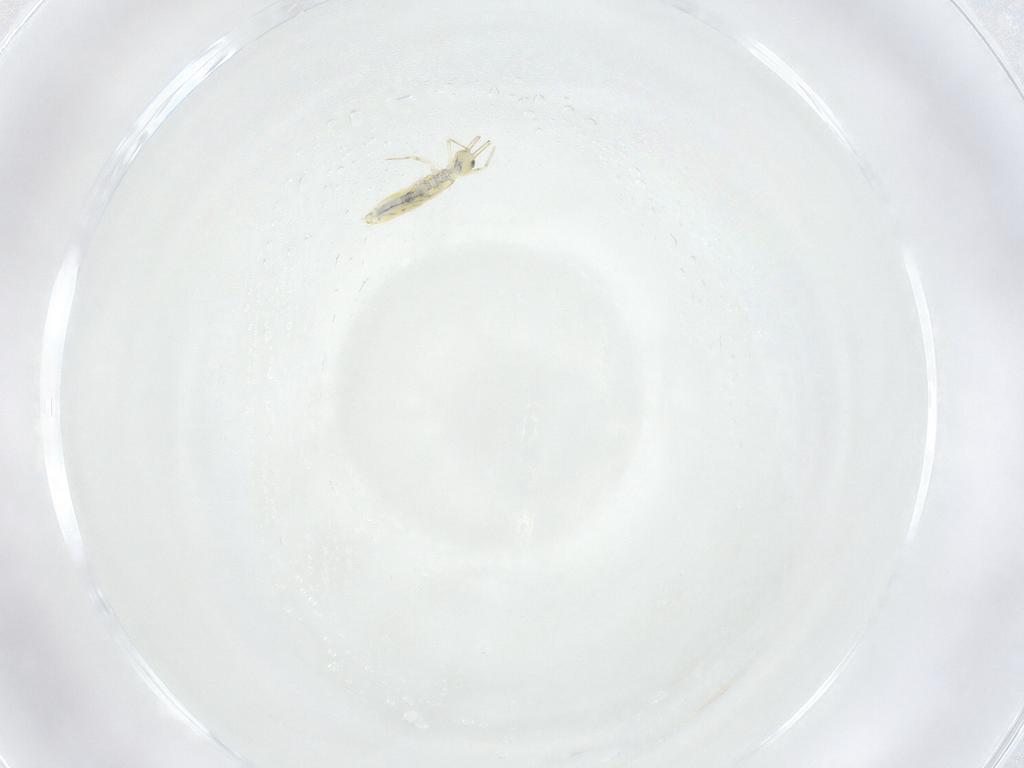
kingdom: Animalia
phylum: Arthropoda
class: Collembola
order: Entomobryomorpha
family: Paronellidae
